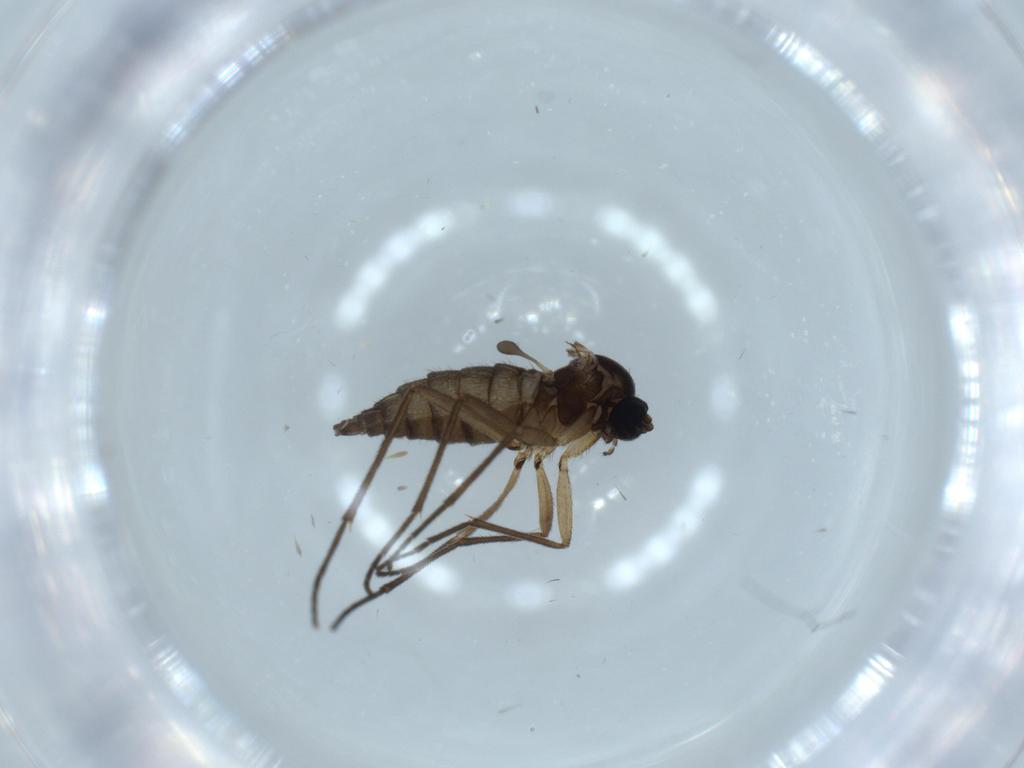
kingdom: Animalia
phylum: Arthropoda
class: Insecta
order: Diptera
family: Sciaridae
